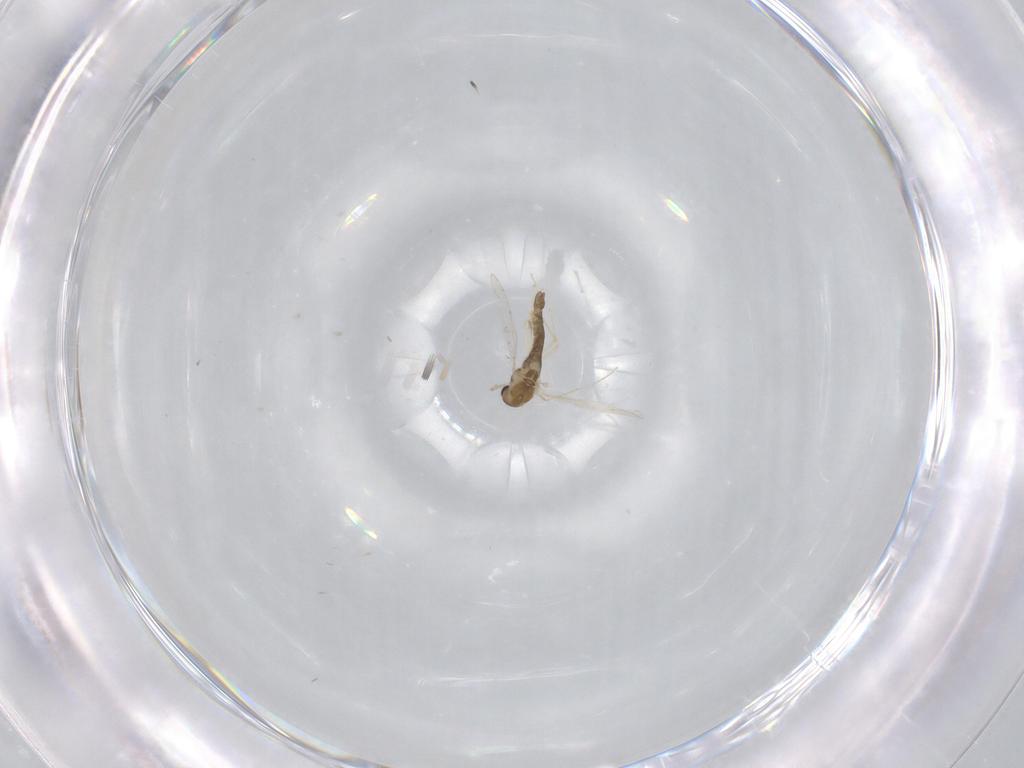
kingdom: Animalia
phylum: Arthropoda
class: Insecta
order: Diptera
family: Chironomidae
